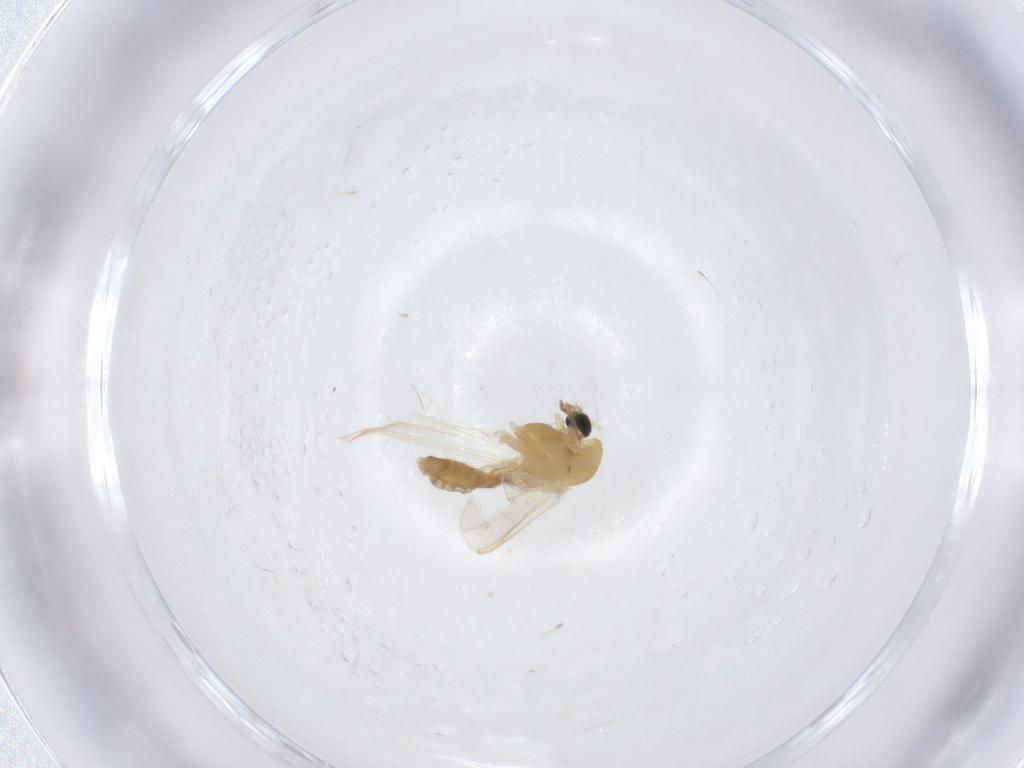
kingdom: Animalia
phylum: Arthropoda
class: Insecta
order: Diptera
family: Chironomidae
